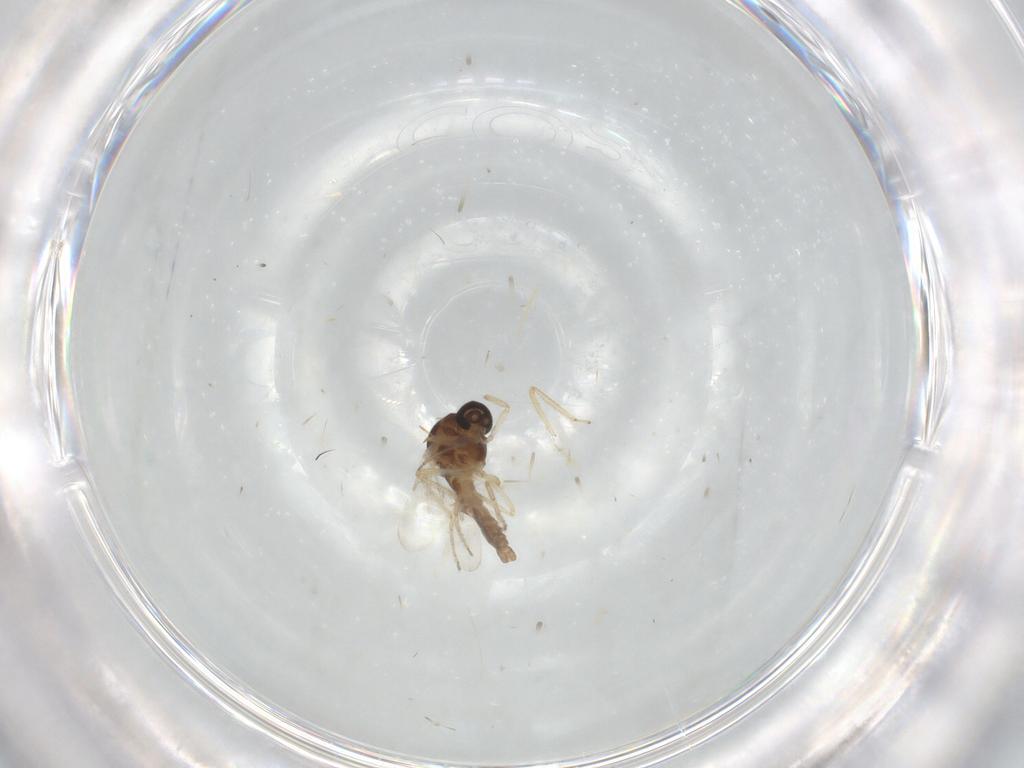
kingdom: Animalia
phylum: Arthropoda
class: Insecta
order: Diptera
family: Ceratopogonidae
